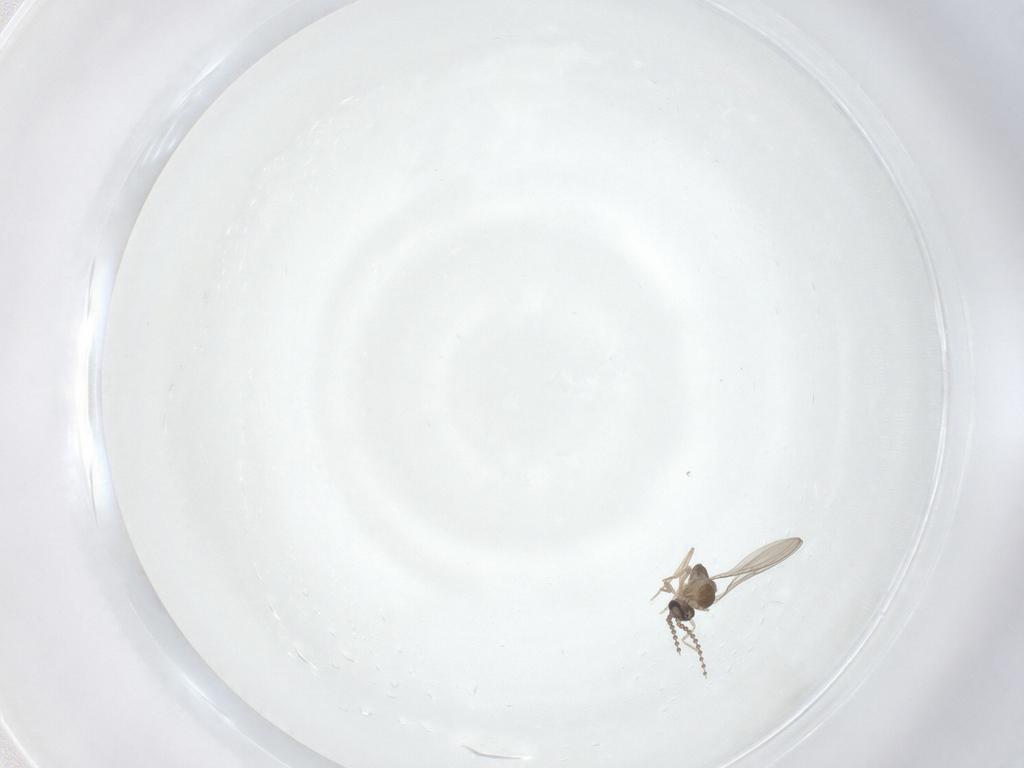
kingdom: Animalia
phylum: Arthropoda
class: Insecta
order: Diptera
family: Cecidomyiidae
